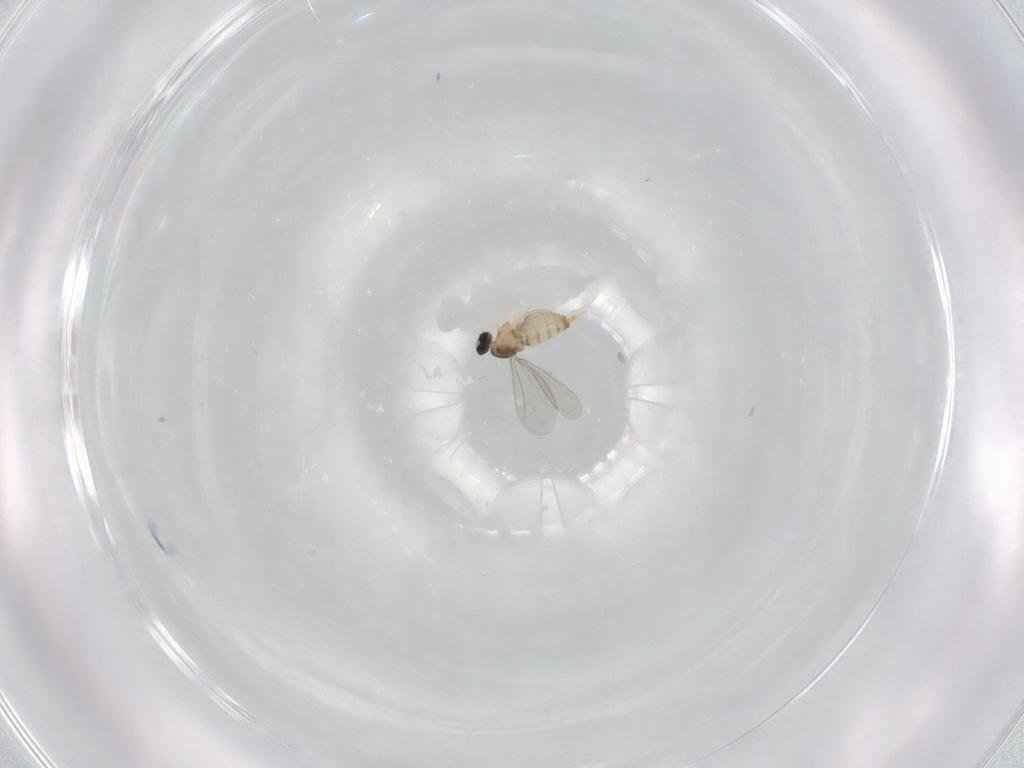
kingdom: Animalia
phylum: Arthropoda
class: Insecta
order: Diptera
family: Cecidomyiidae
